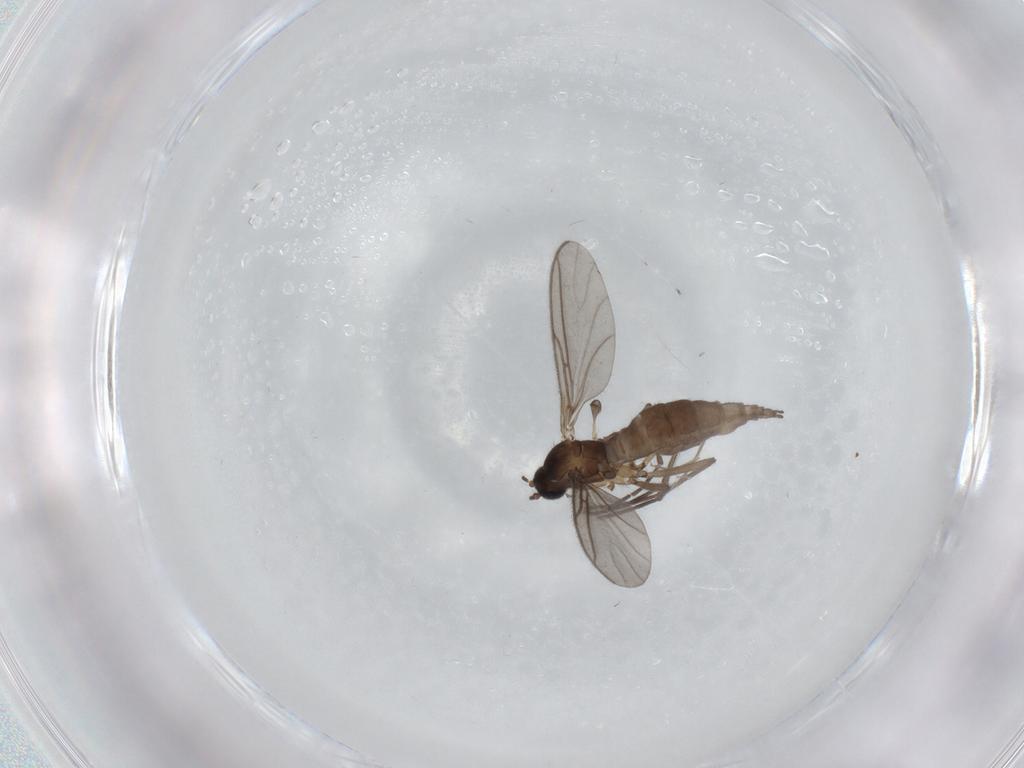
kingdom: Animalia
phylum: Arthropoda
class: Insecta
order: Diptera
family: Sciaridae
